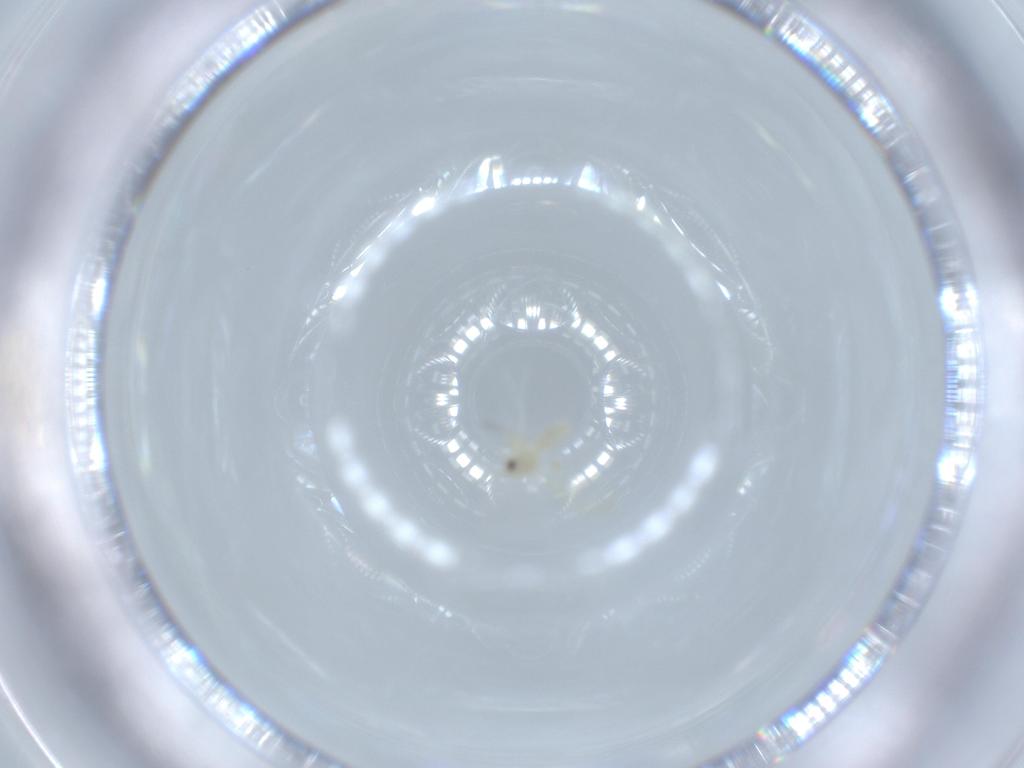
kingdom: Animalia
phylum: Arthropoda
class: Insecta
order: Hemiptera
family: Aleyrodidae
